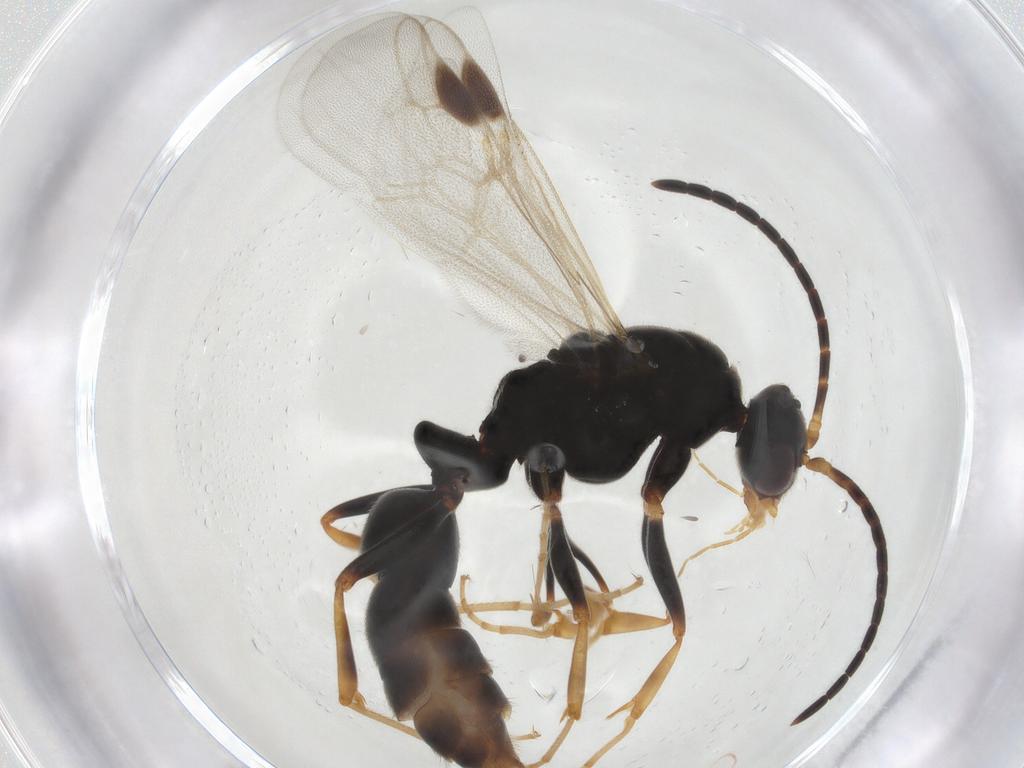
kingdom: Animalia
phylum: Arthropoda
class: Insecta
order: Hymenoptera
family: Formicidae
